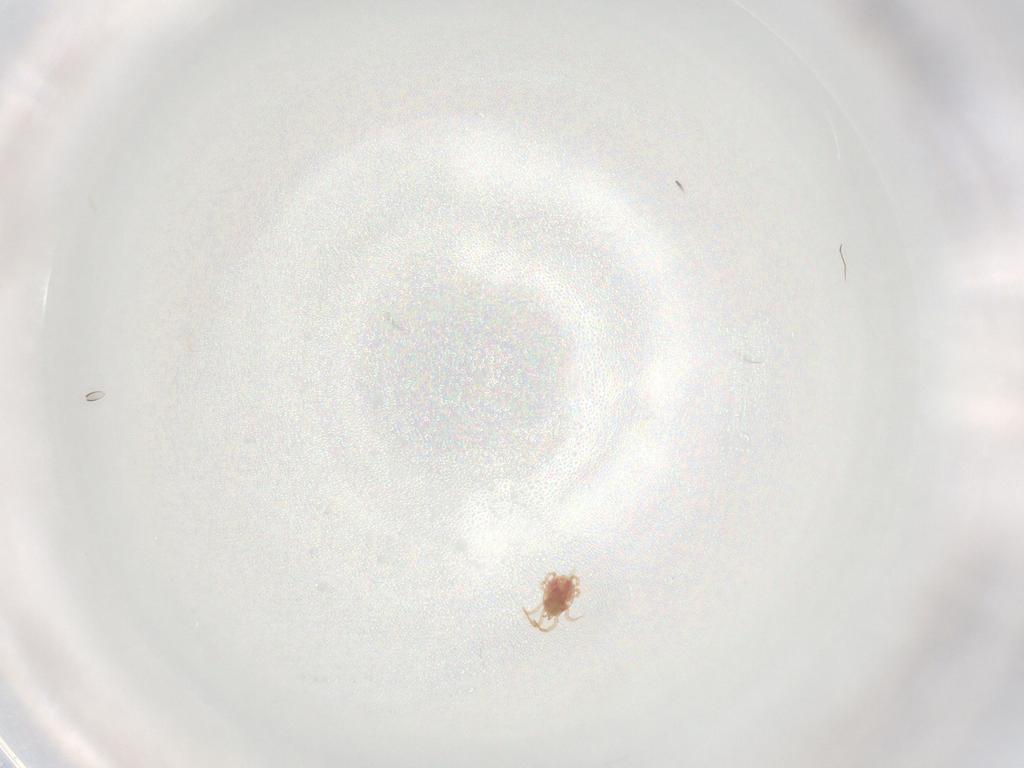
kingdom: Animalia
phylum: Arthropoda
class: Arachnida
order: Trombidiformes
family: Eupodidae
